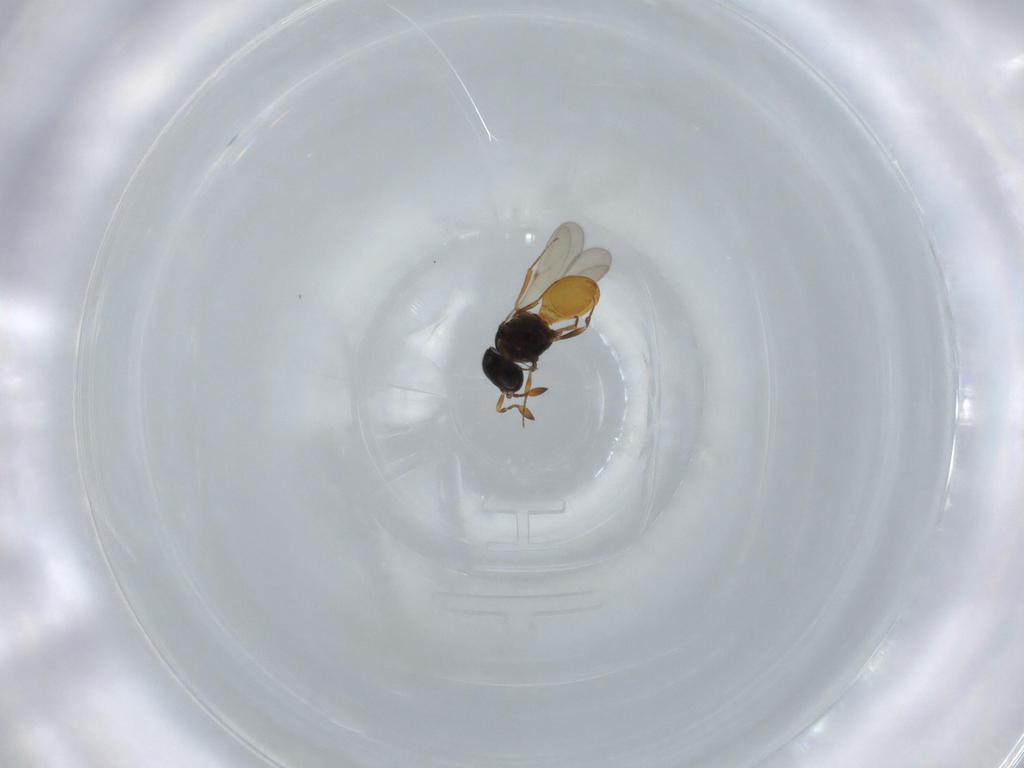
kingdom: Animalia
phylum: Arthropoda
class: Insecta
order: Hymenoptera
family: Scelionidae
